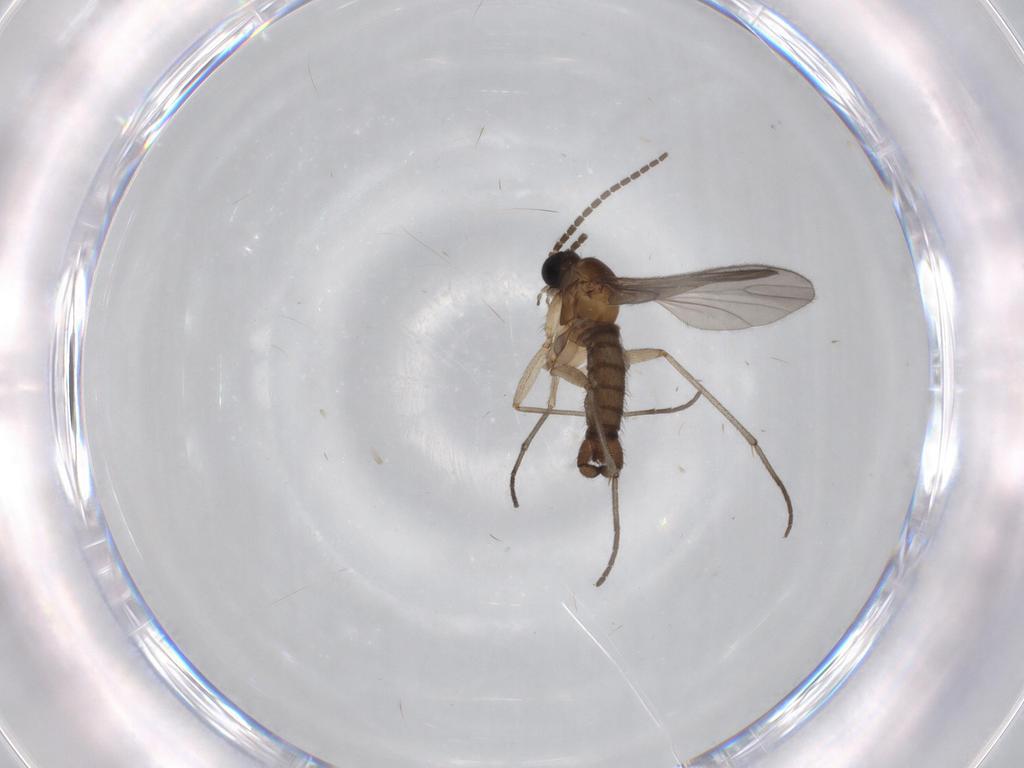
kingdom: Animalia
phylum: Arthropoda
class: Insecta
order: Diptera
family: Sciaridae
